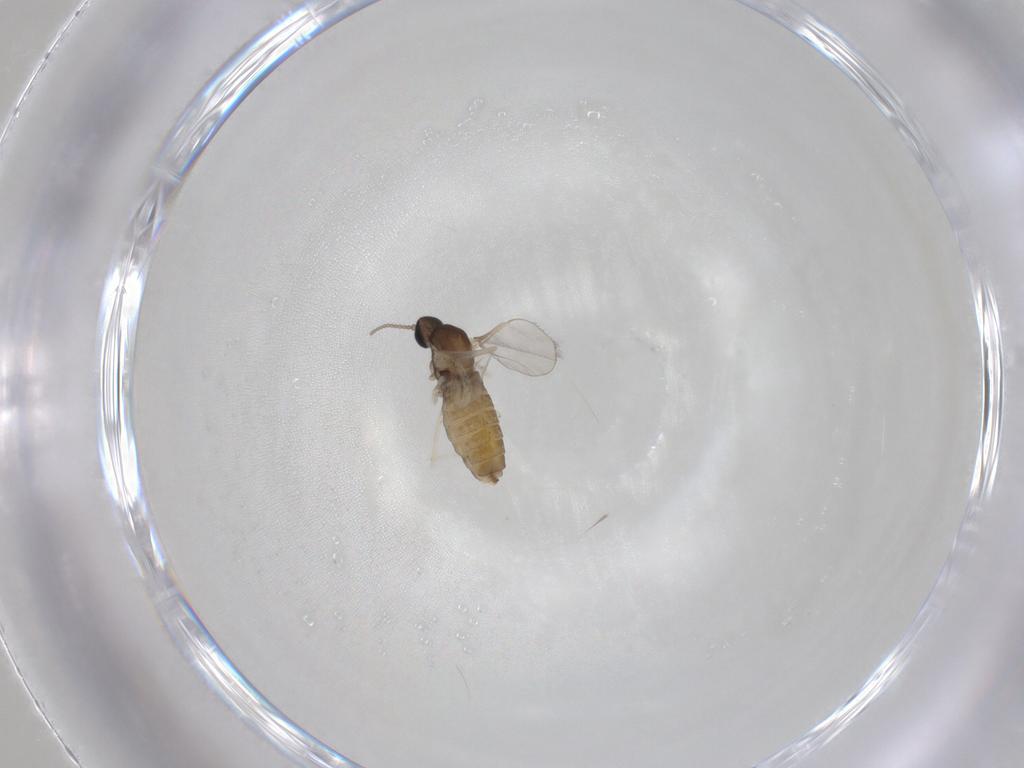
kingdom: Animalia
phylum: Arthropoda
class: Insecta
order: Diptera
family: Cecidomyiidae
